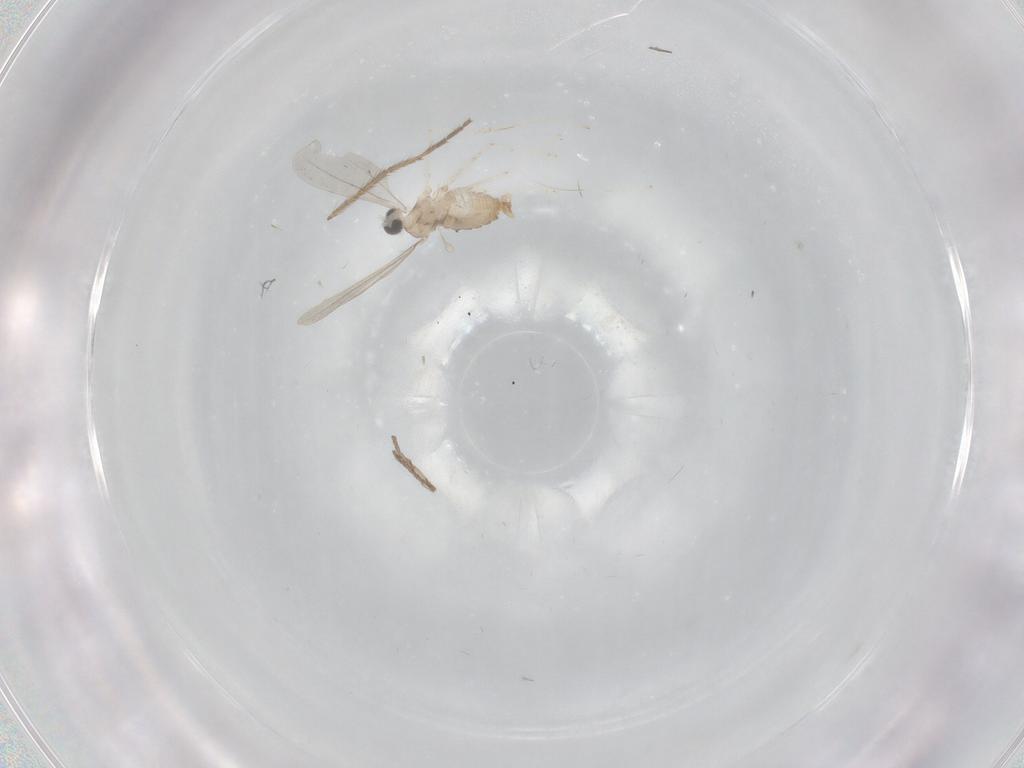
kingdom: Animalia
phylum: Arthropoda
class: Insecta
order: Diptera
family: Cecidomyiidae
